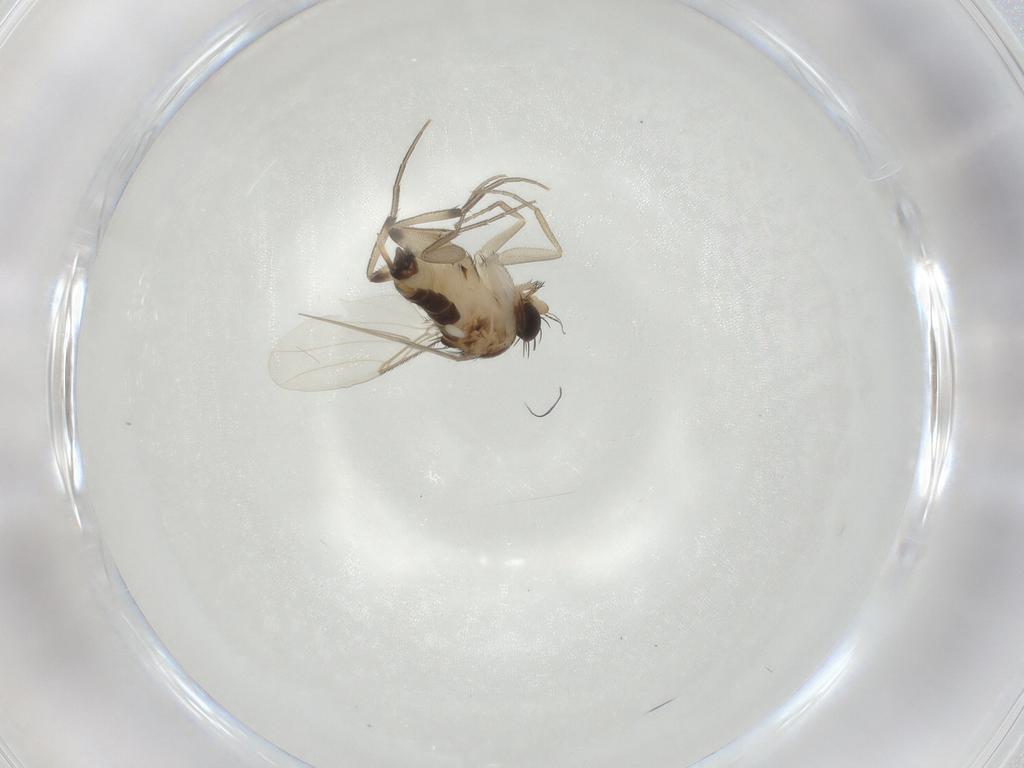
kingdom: Animalia
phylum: Arthropoda
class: Insecta
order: Diptera
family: Phoridae
